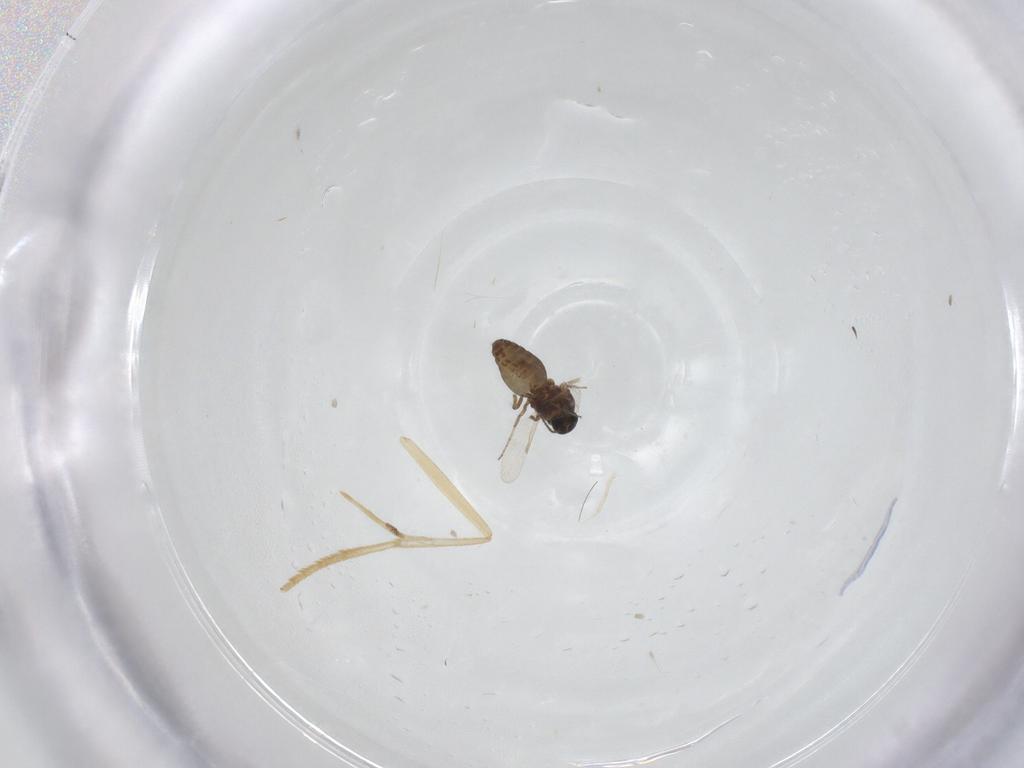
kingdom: Animalia
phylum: Arthropoda
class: Insecta
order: Diptera
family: Ceratopogonidae
